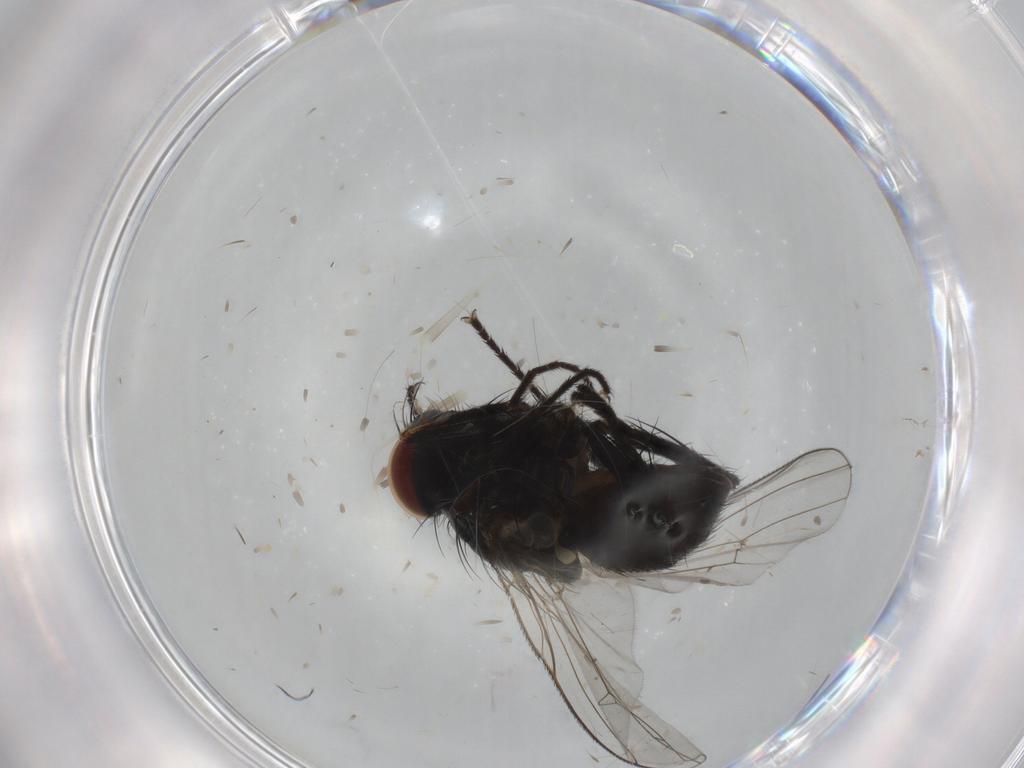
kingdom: Animalia
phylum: Arthropoda
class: Insecta
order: Diptera
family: Muscidae
